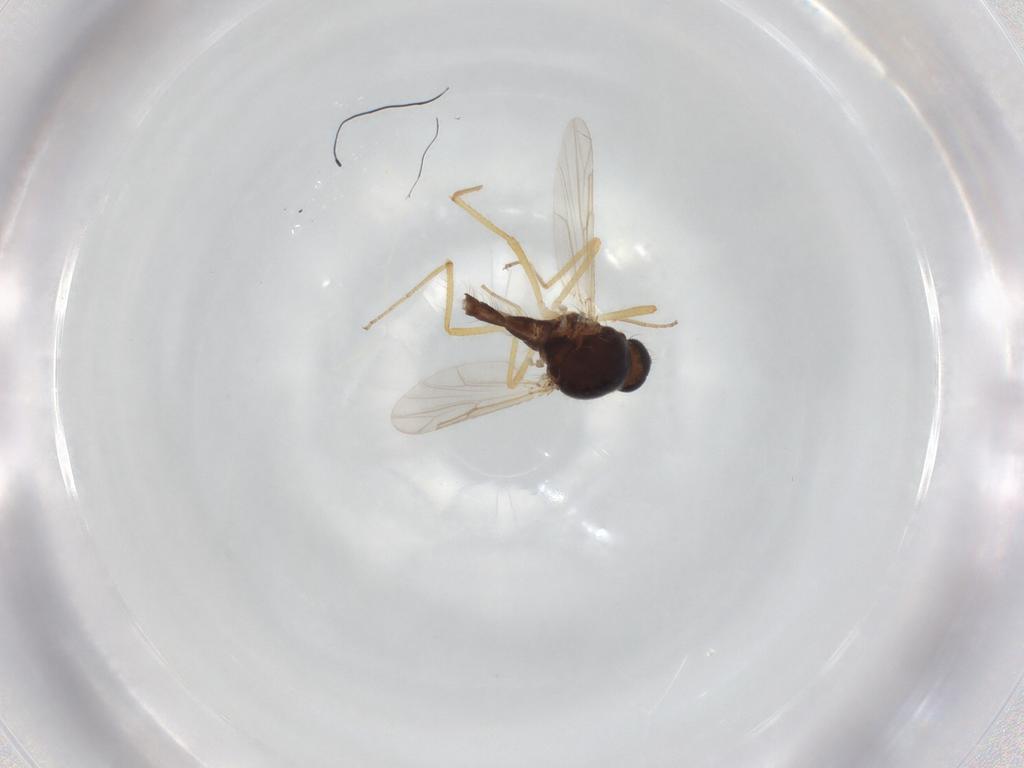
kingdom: Animalia
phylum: Arthropoda
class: Insecta
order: Diptera
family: Ceratopogonidae
